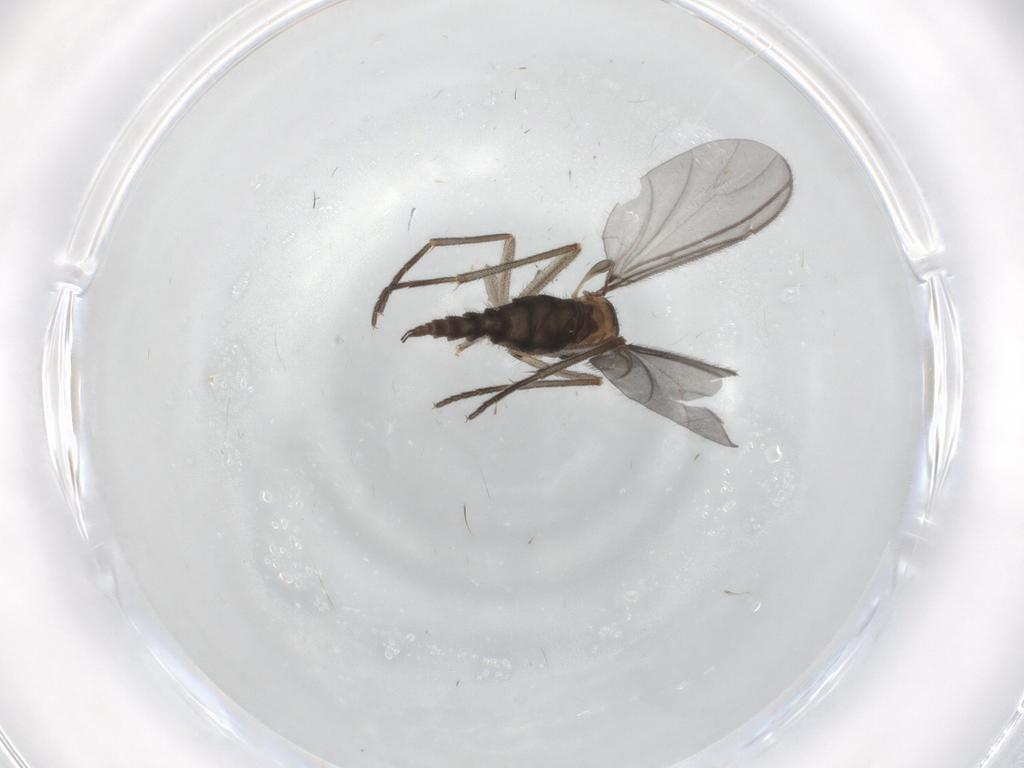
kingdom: Animalia
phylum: Arthropoda
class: Insecta
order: Diptera
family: Sciaridae
